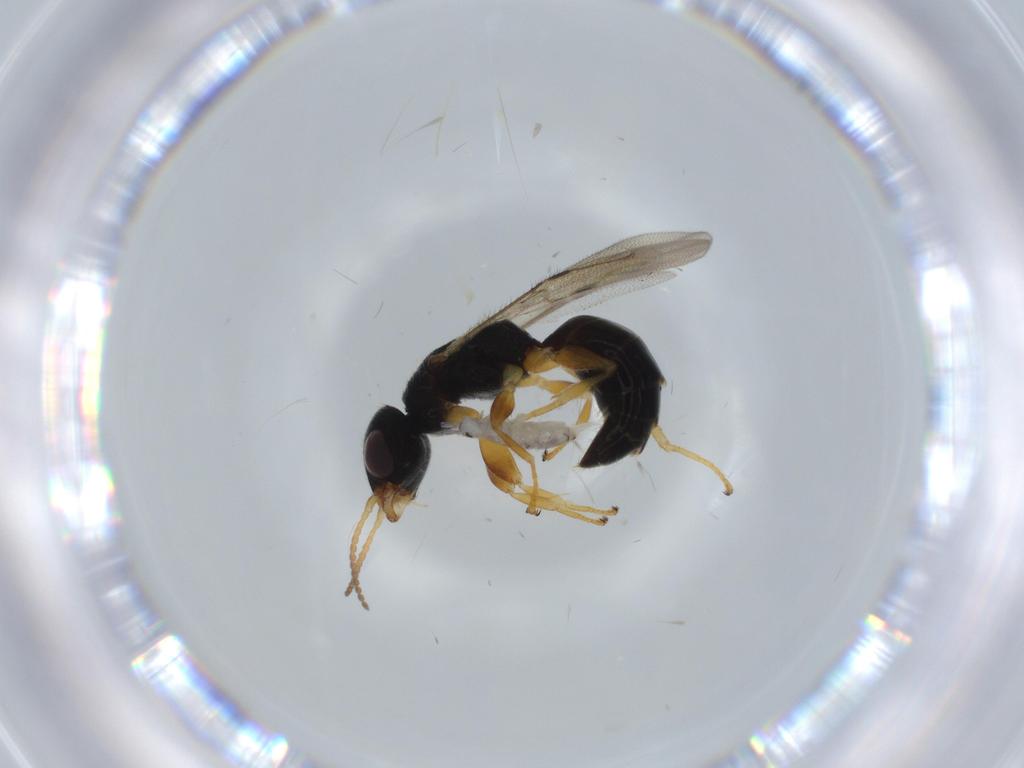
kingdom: Animalia
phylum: Arthropoda
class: Insecta
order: Hymenoptera
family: Bethylidae
